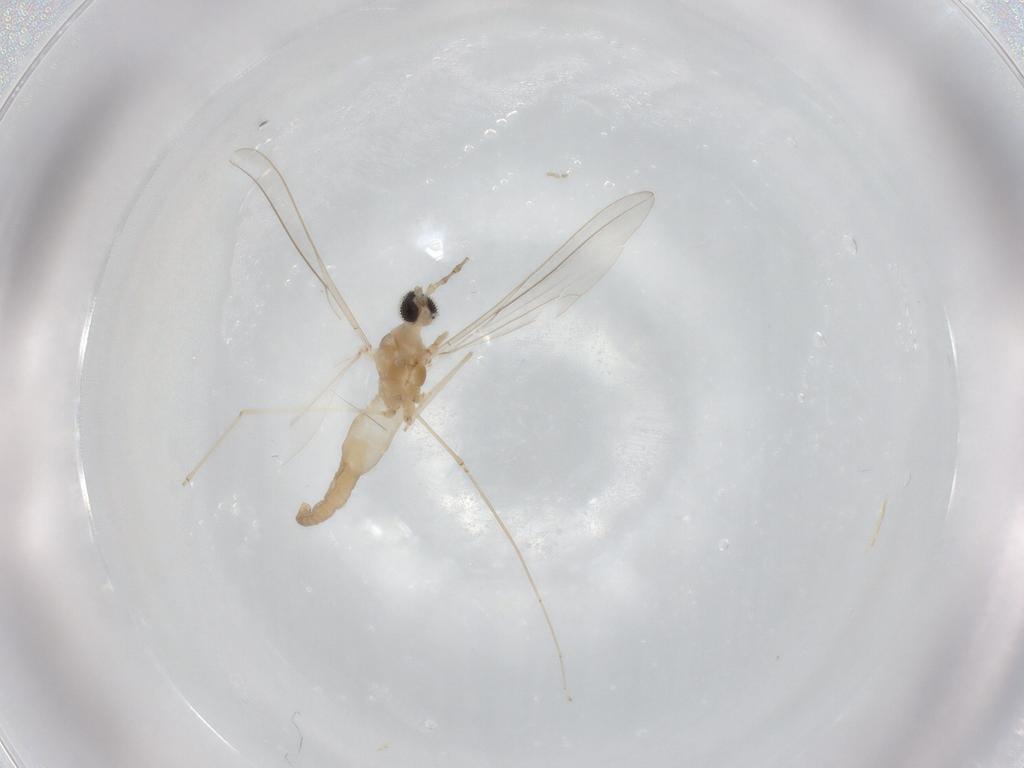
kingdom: Animalia
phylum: Arthropoda
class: Insecta
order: Diptera
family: Cecidomyiidae
